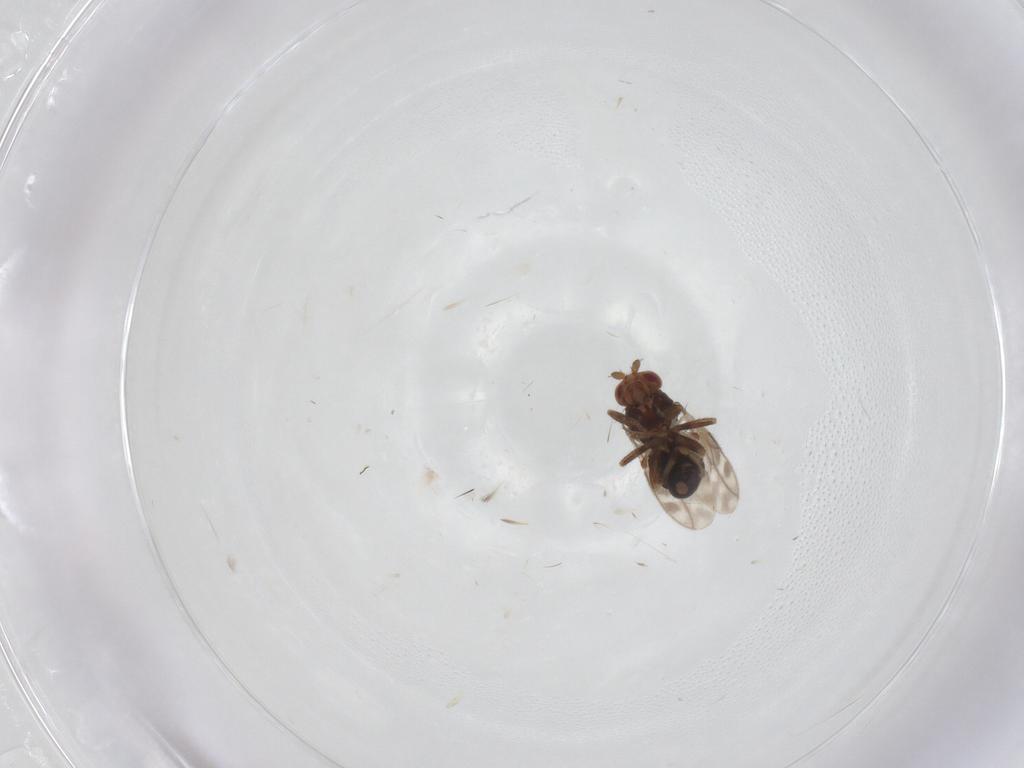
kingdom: Animalia
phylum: Arthropoda
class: Insecta
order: Diptera
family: Sphaeroceridae
